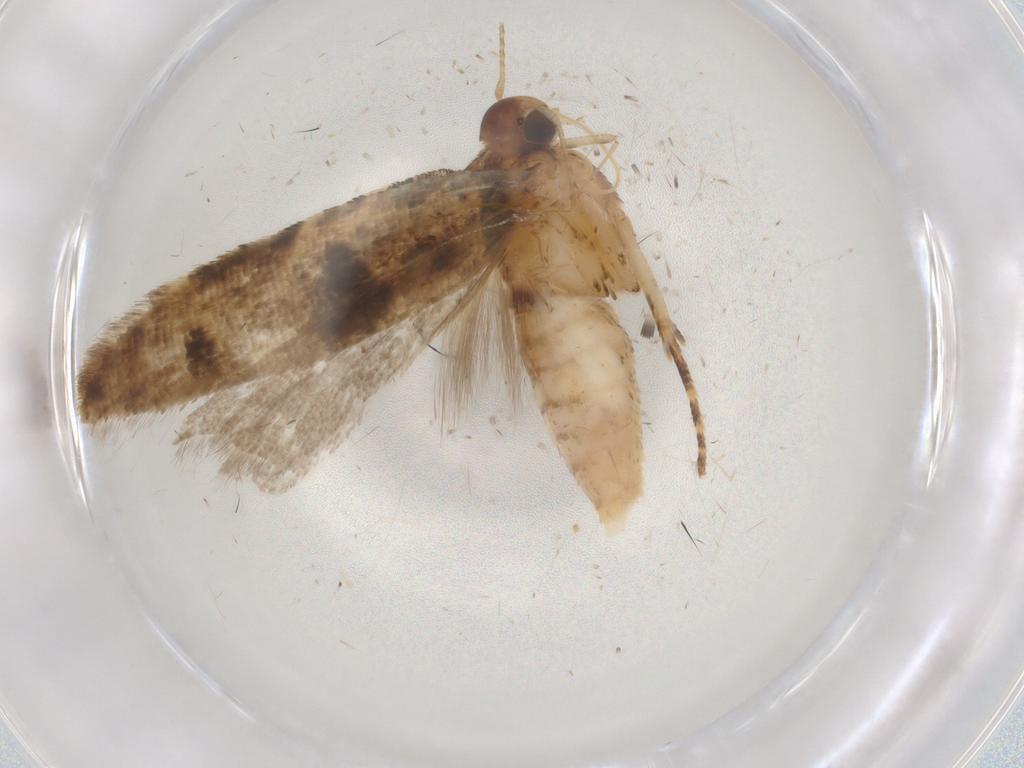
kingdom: Animalia
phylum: Arthropoda
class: Insecta
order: Lepidoptera
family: Gelechiidae
